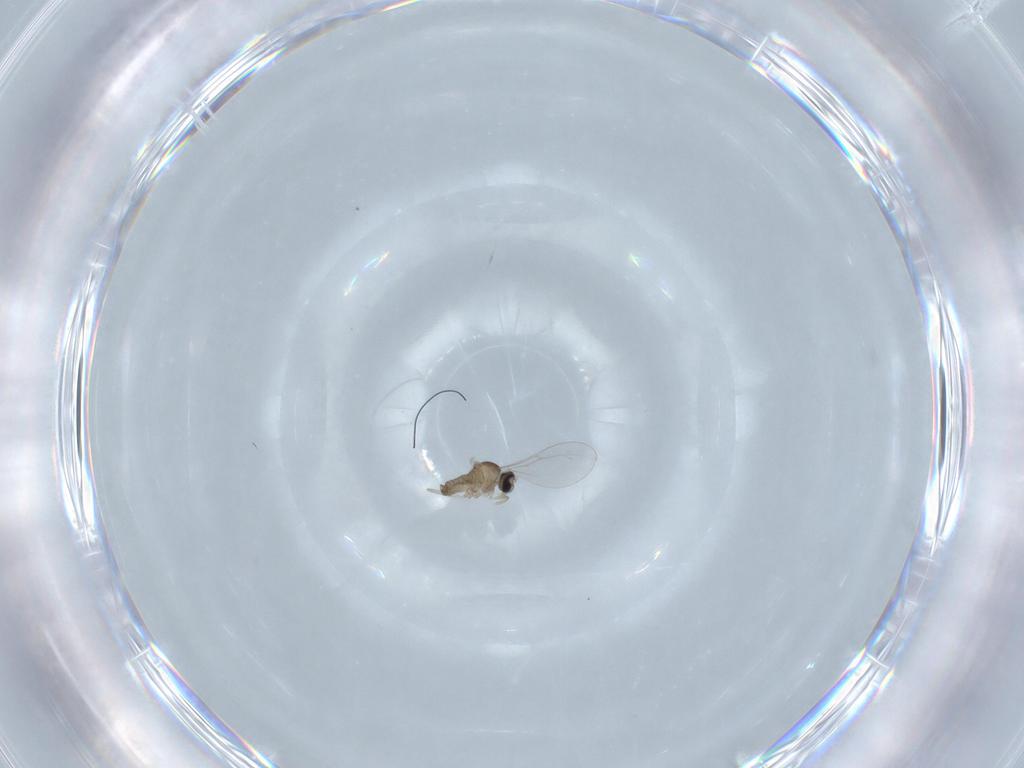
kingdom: Animalia
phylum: Arthropoda
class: Insecta
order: Diptera
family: Cecidomyiidae
